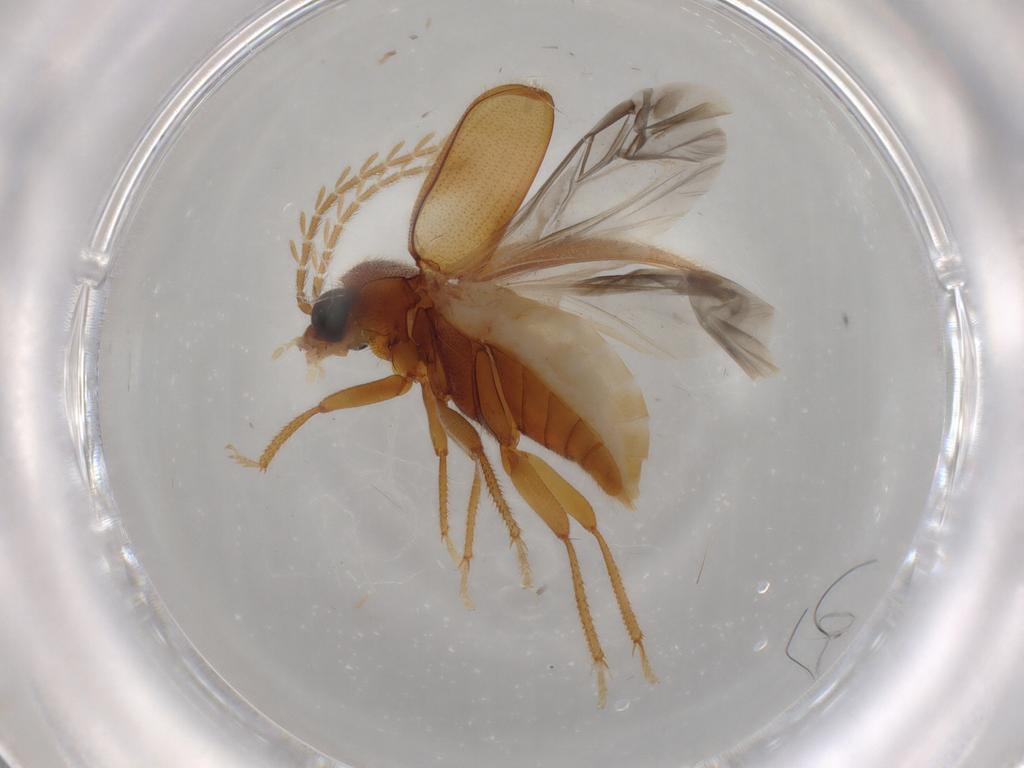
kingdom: Animalia
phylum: Arthropoda
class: Insecta
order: Coleoptera
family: Ptilodactylidae
